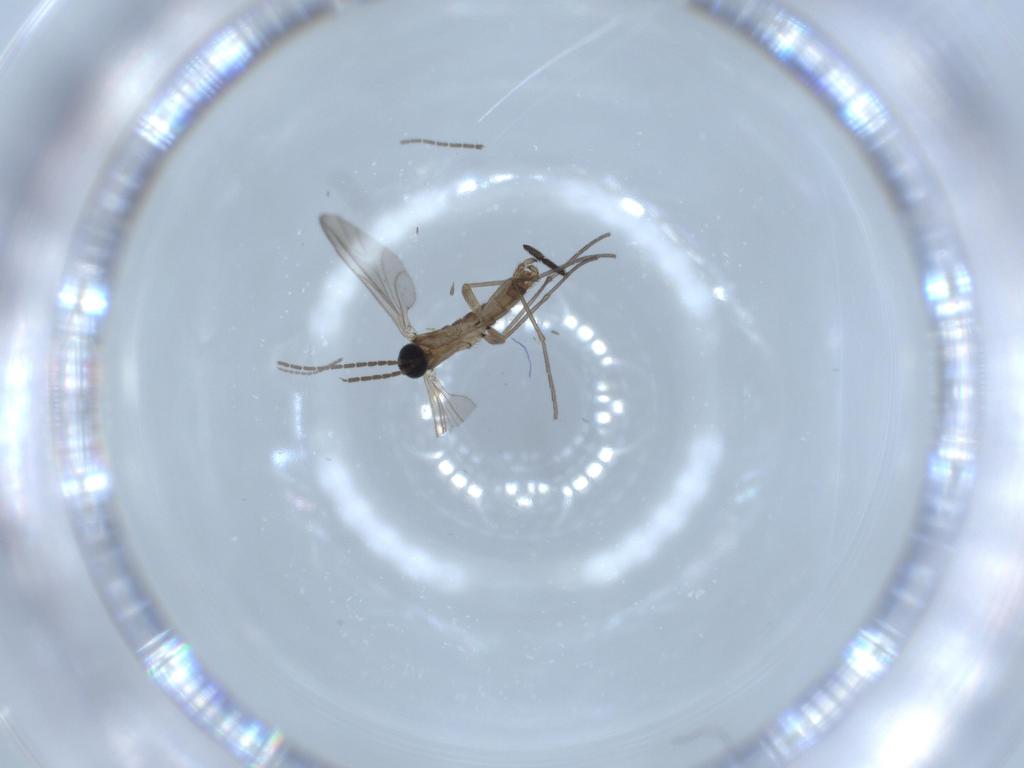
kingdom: Animalia
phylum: Arthropoda
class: Insecta
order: Diptera
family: Sciaridae
